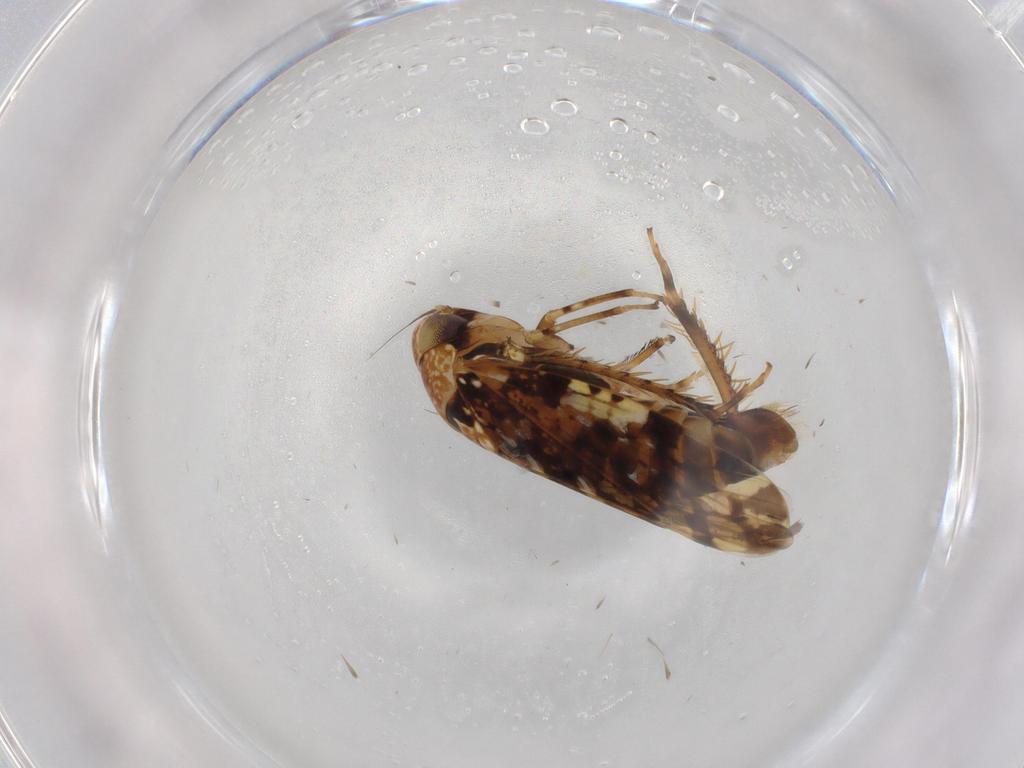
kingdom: Animalia
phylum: Arthropoda
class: Insecta
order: Hemiptera
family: Cicadellidae
